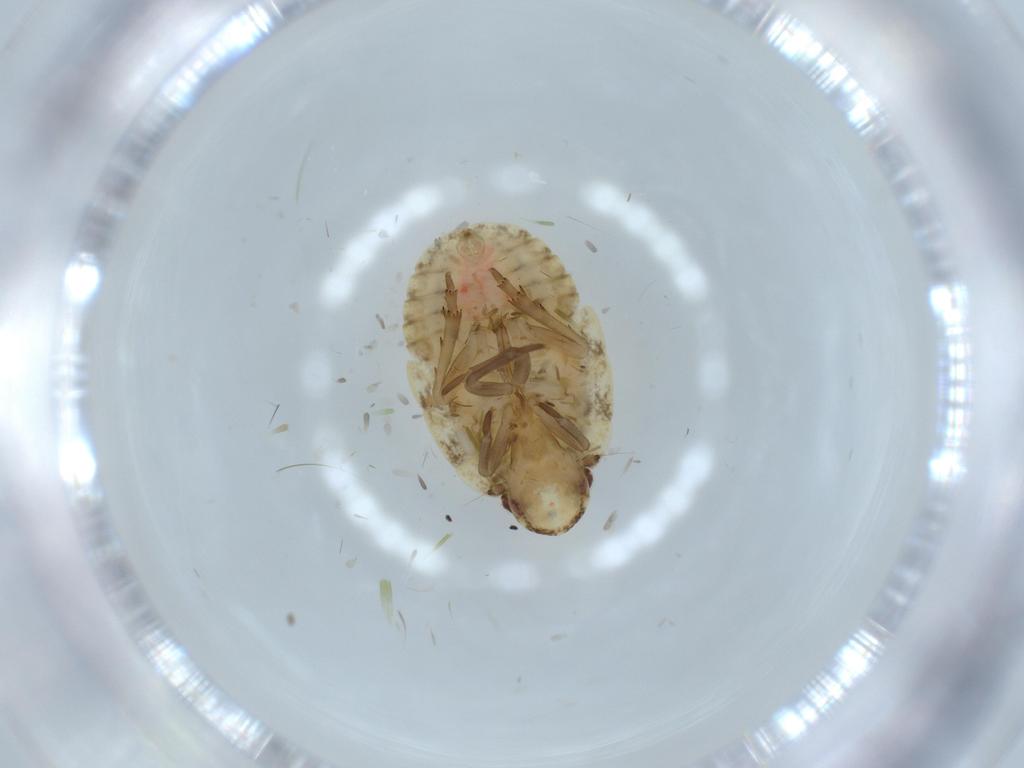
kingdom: Animalia
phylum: Arthropoda
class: Insecta
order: Hemiptera
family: Flatidae
